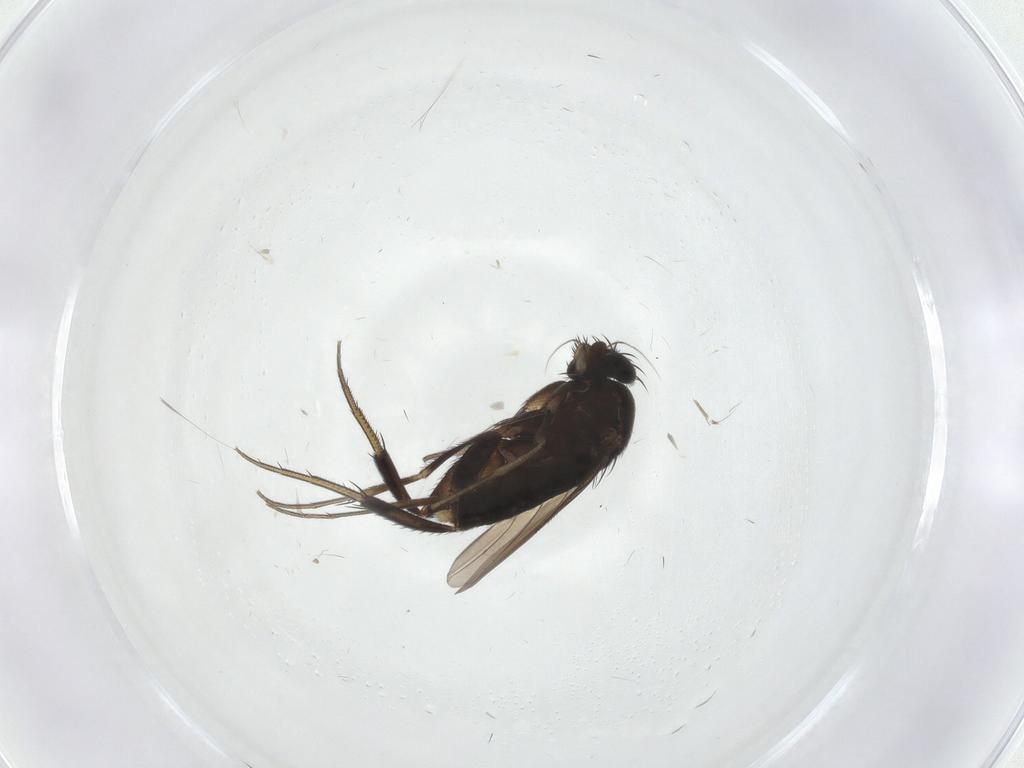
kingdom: Animalia
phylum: Arthropoda
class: Insecta
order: Diptera
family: Phoridae
